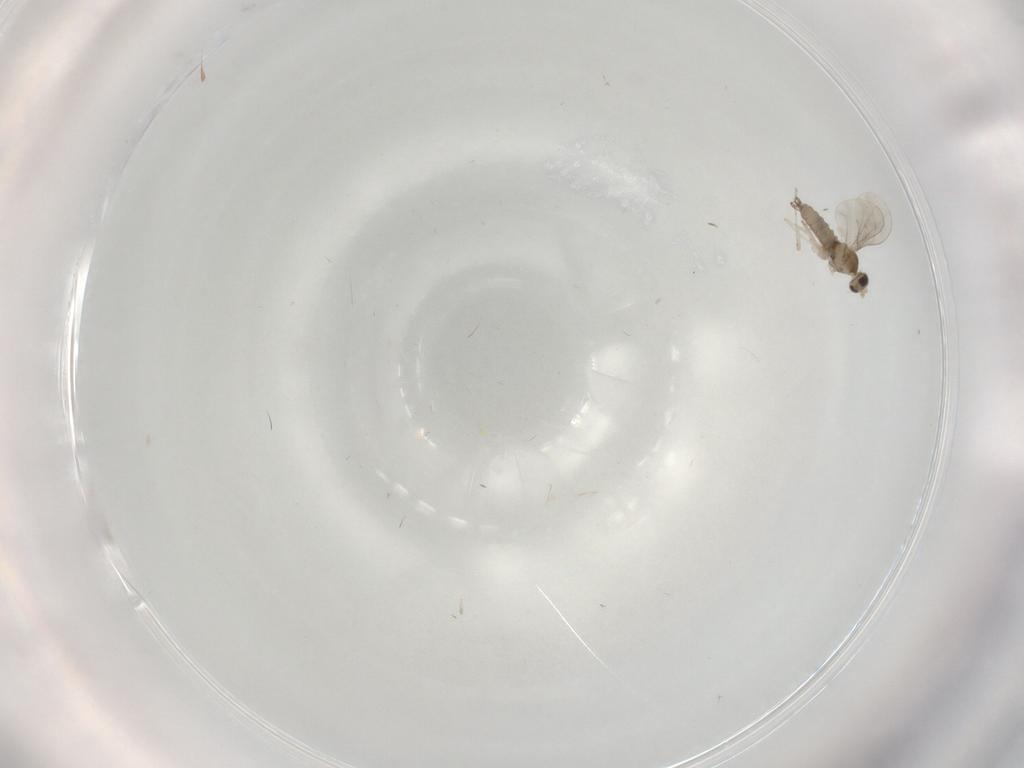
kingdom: Animalia
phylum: Arthropoda
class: Insecta
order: Diptera
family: Cecidomyiidae
